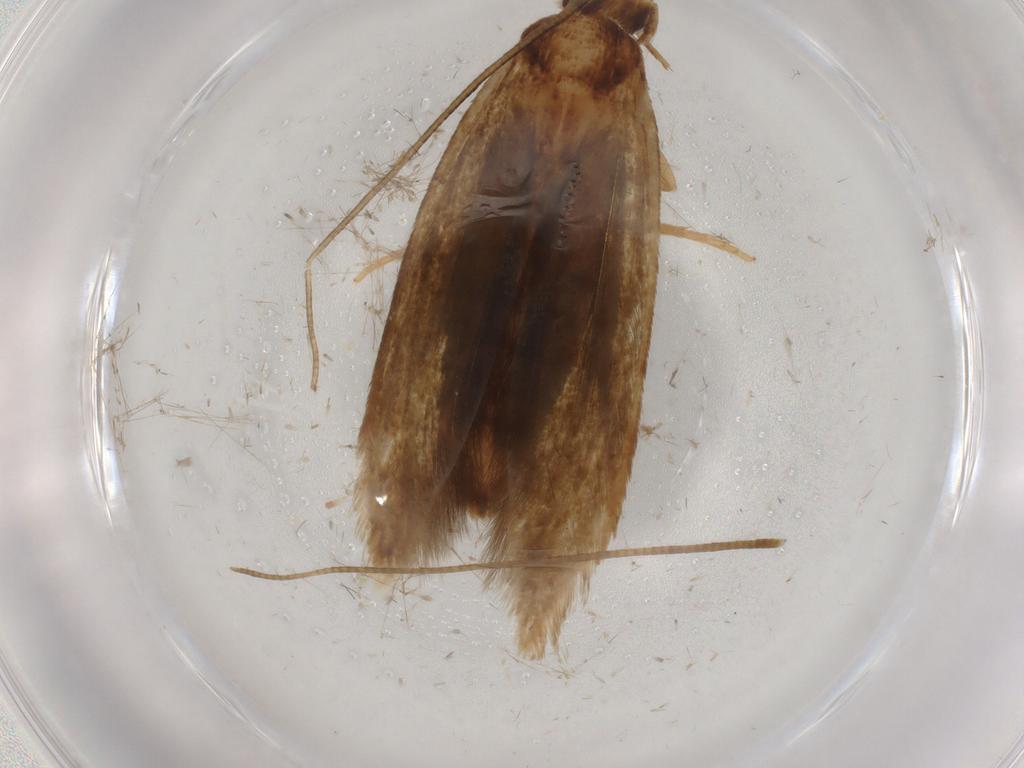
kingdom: Animalia
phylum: Arthropoda
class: Insecta
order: Lepidoptera
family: Tineidae
